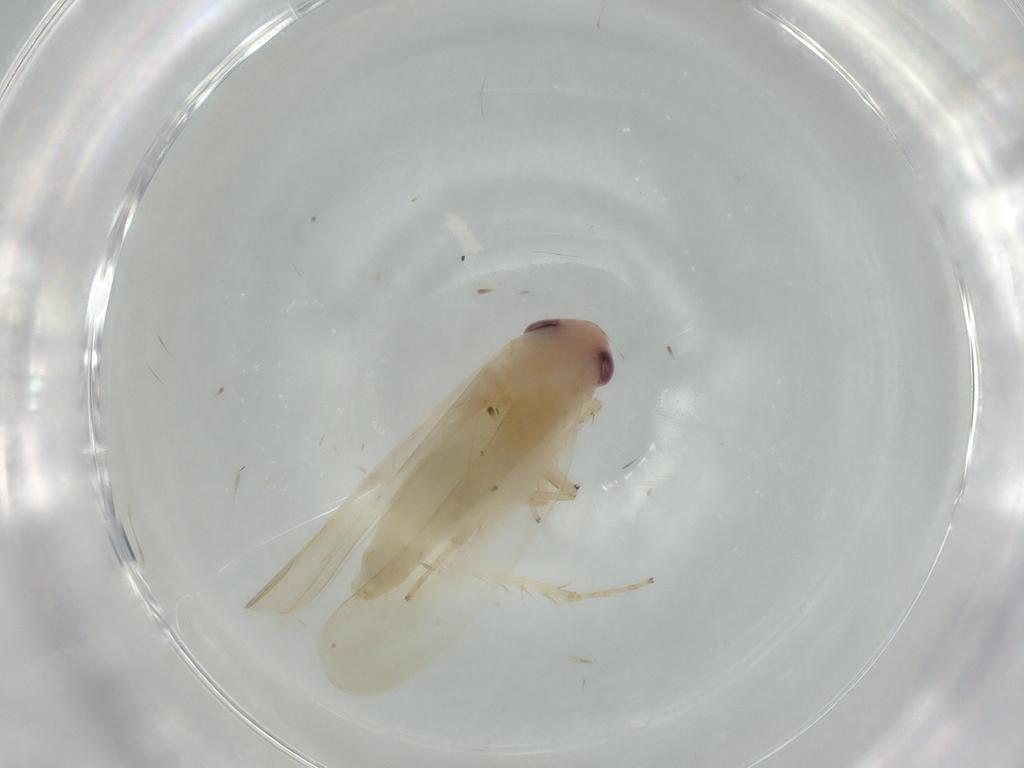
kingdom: Animalia
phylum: Arthropoda
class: Insecta
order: Hemiptera
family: Cicadellidae
